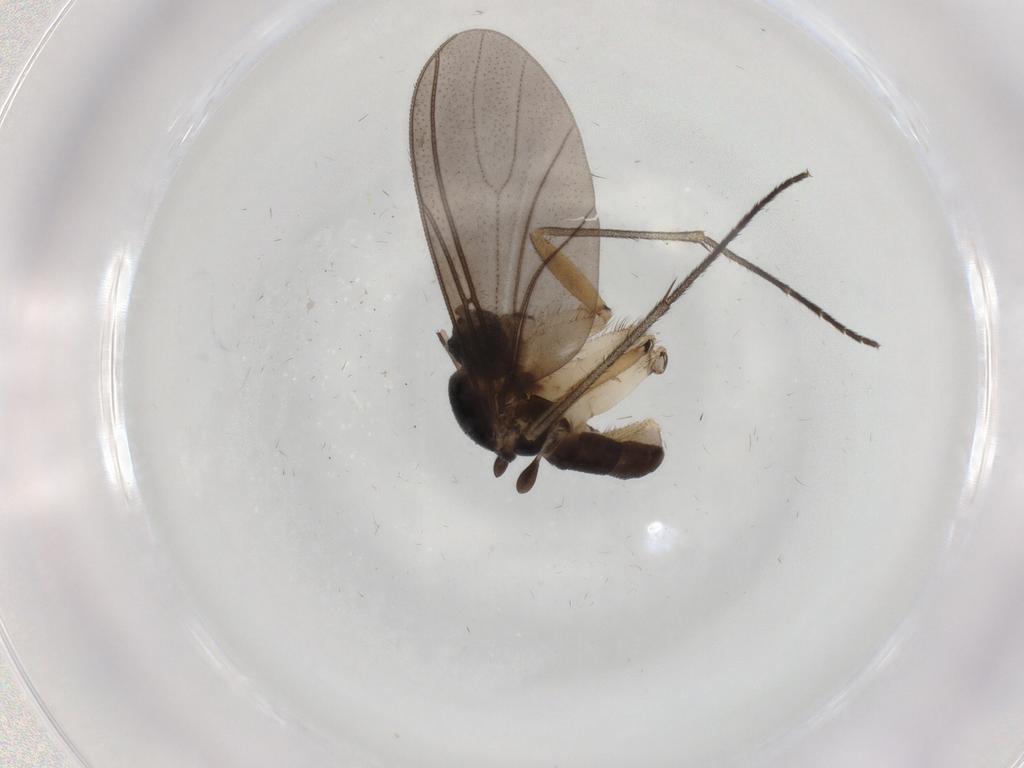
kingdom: Animalia
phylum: Arthropoda
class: Insecta
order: Diptera
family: Sciaridae
